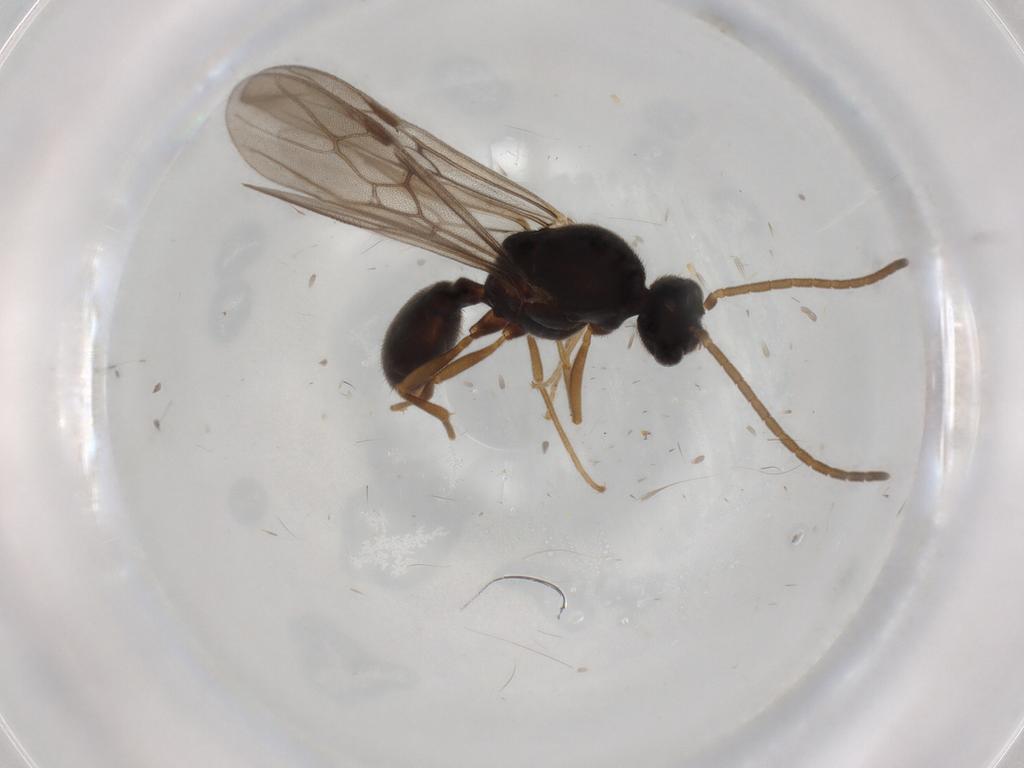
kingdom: Animalia
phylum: Arthropoda
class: Insecta
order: Hymenoptera
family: Formicidae
